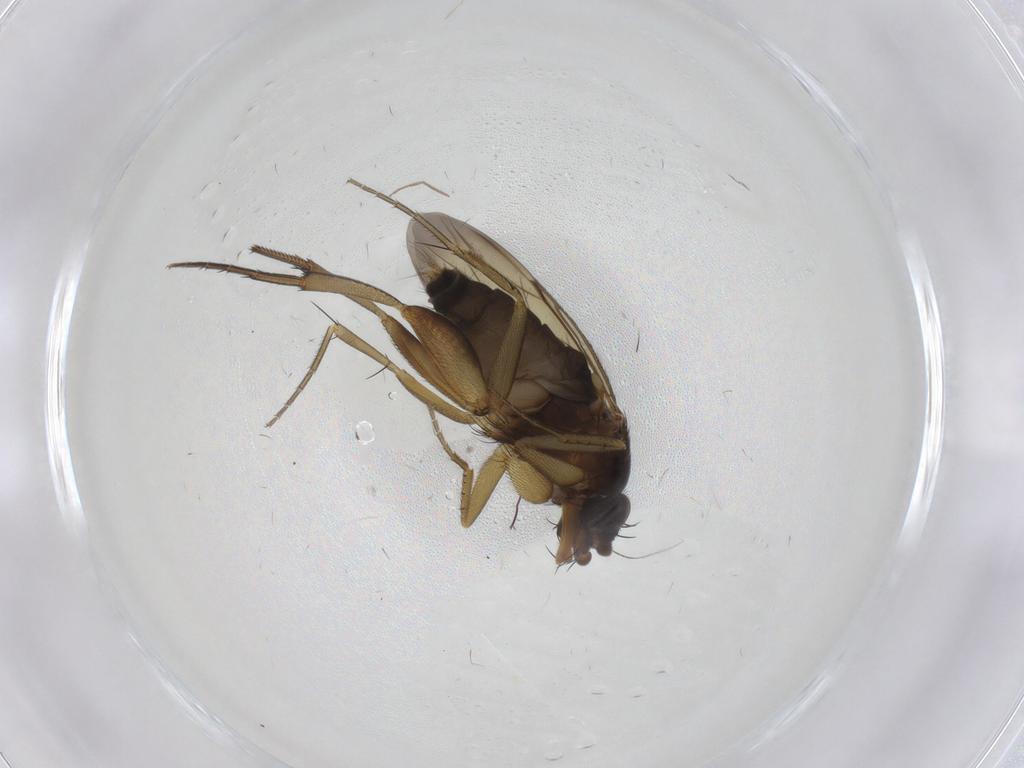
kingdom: Animalia
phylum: Arthropoda
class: Insecta
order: Diptera
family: Phoridae
